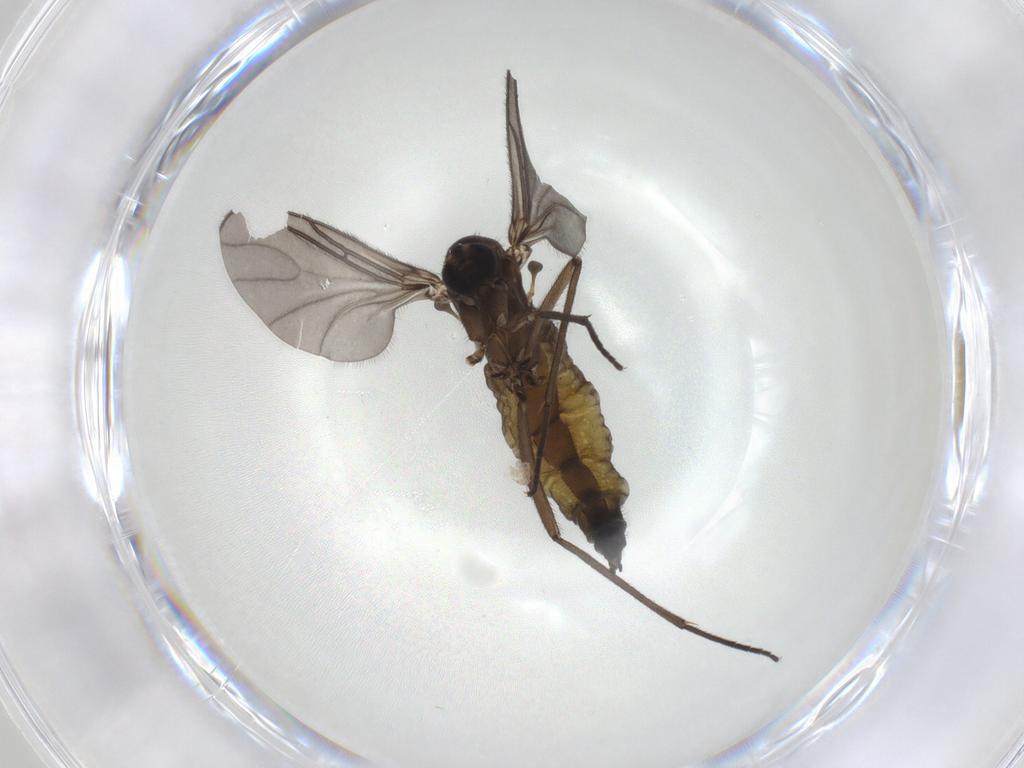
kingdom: Animalia
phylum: Arthropoda
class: Insecta
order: Diptera
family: Sciaridae
